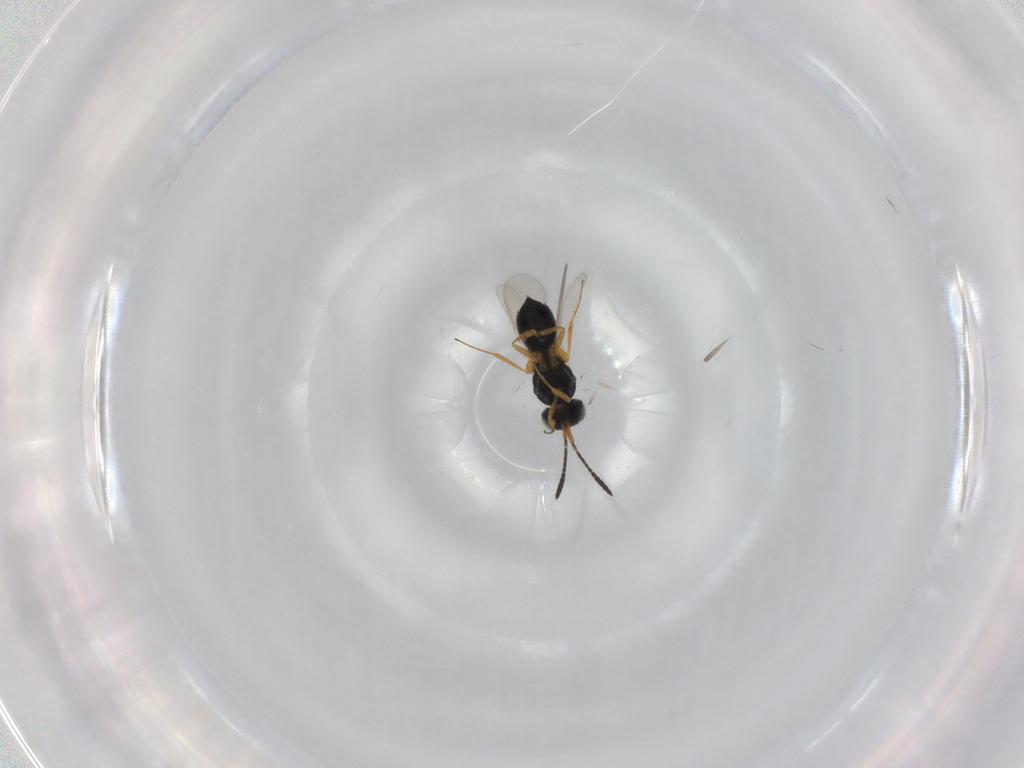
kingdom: Animalia
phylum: Arthropoda
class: Insecta
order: Hymenoptera
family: Scelionidae
